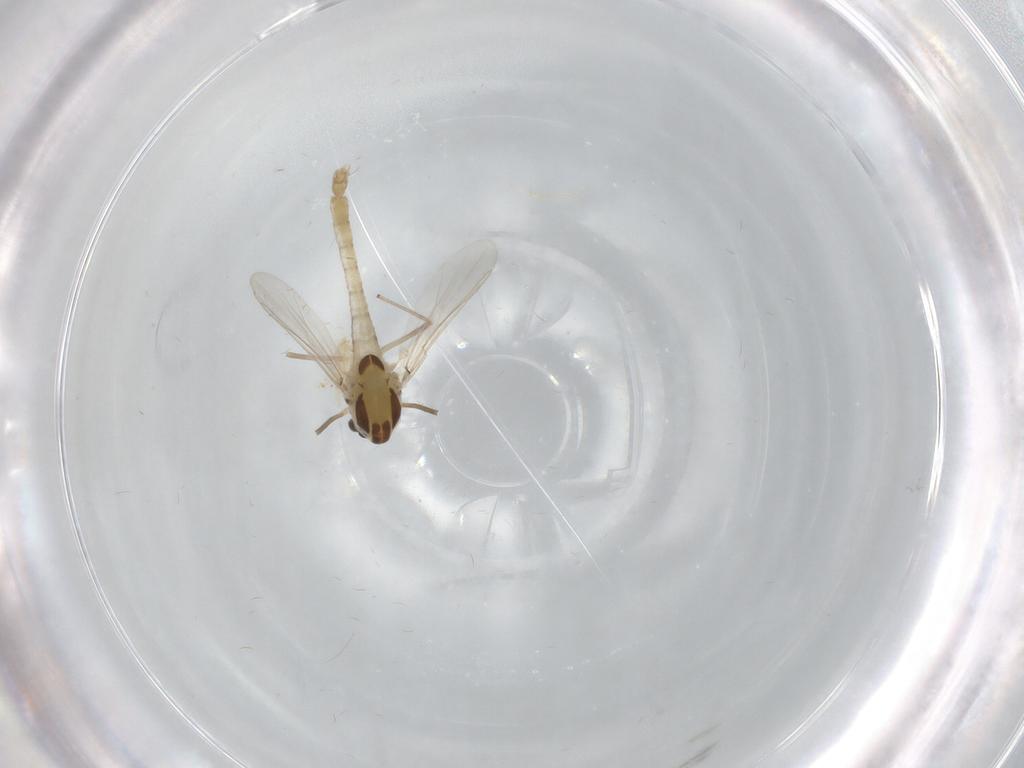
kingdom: Animalia
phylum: Arthropoda
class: Insecta
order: Diptera
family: Chironomidae
